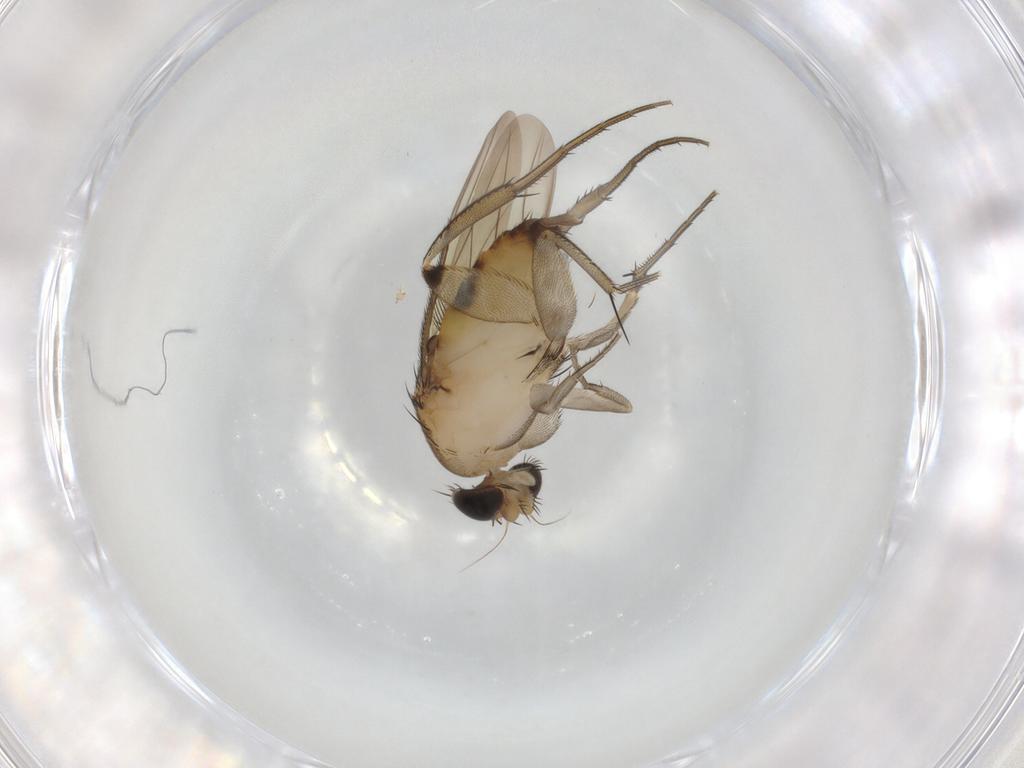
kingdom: Animalia
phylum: Arthropoda
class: Insecta
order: Diptera
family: Phoridae
